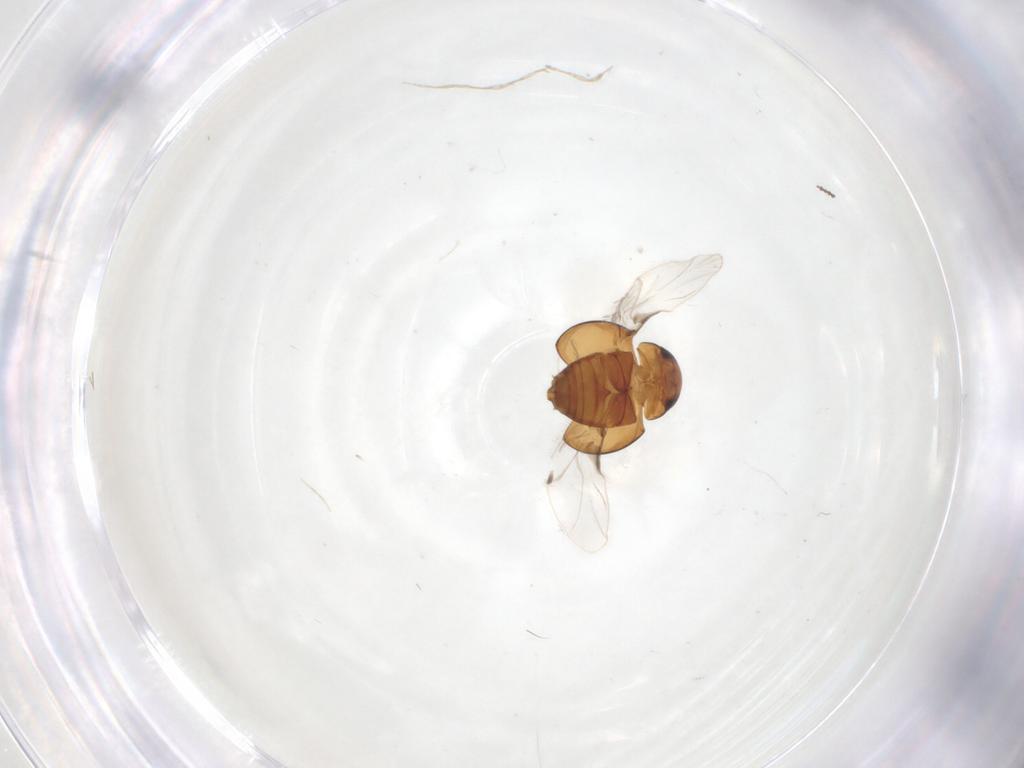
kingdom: Animalia
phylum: Arthropoda
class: Insecta
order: Coleoptera
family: Clambidae
